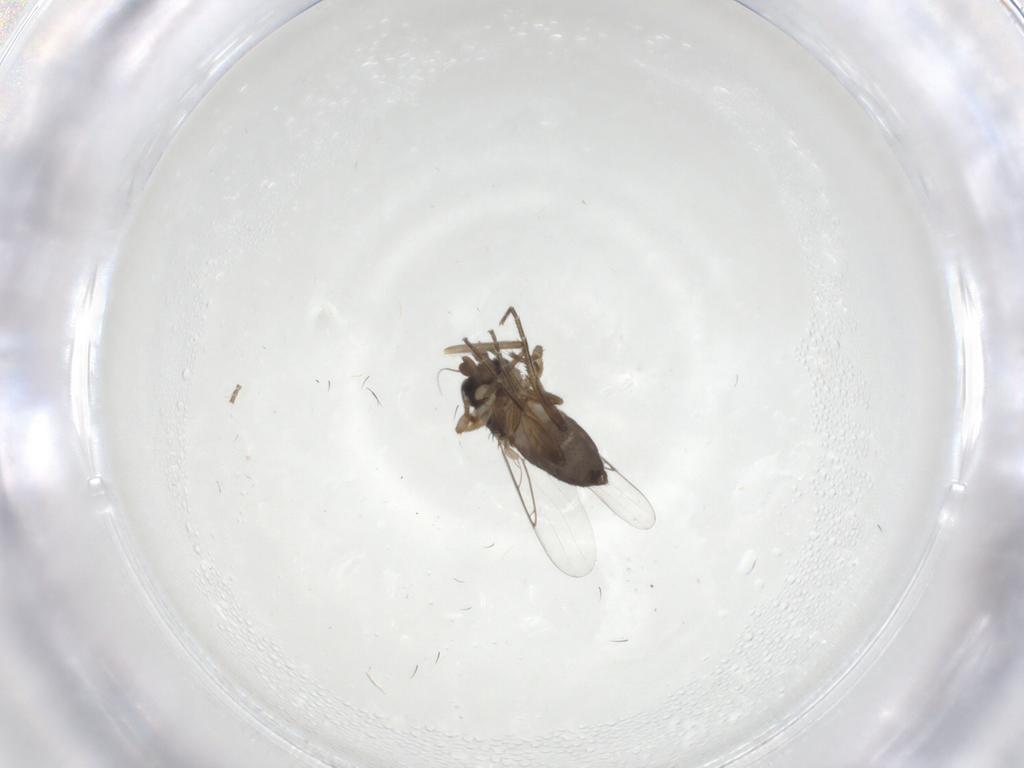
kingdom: Animalia
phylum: Arthropoda
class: Insecta
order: Diptera
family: Phoridae
